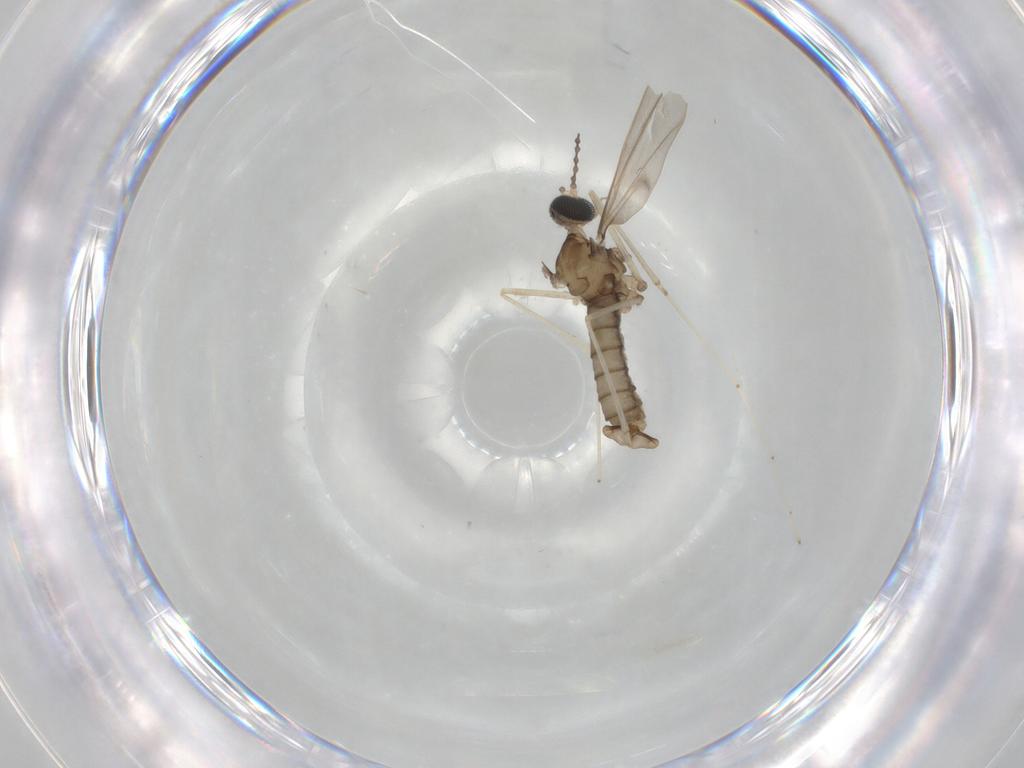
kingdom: Animalia
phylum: Arthropoda
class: Insecta
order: Diptera
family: Cecidomyiidae
